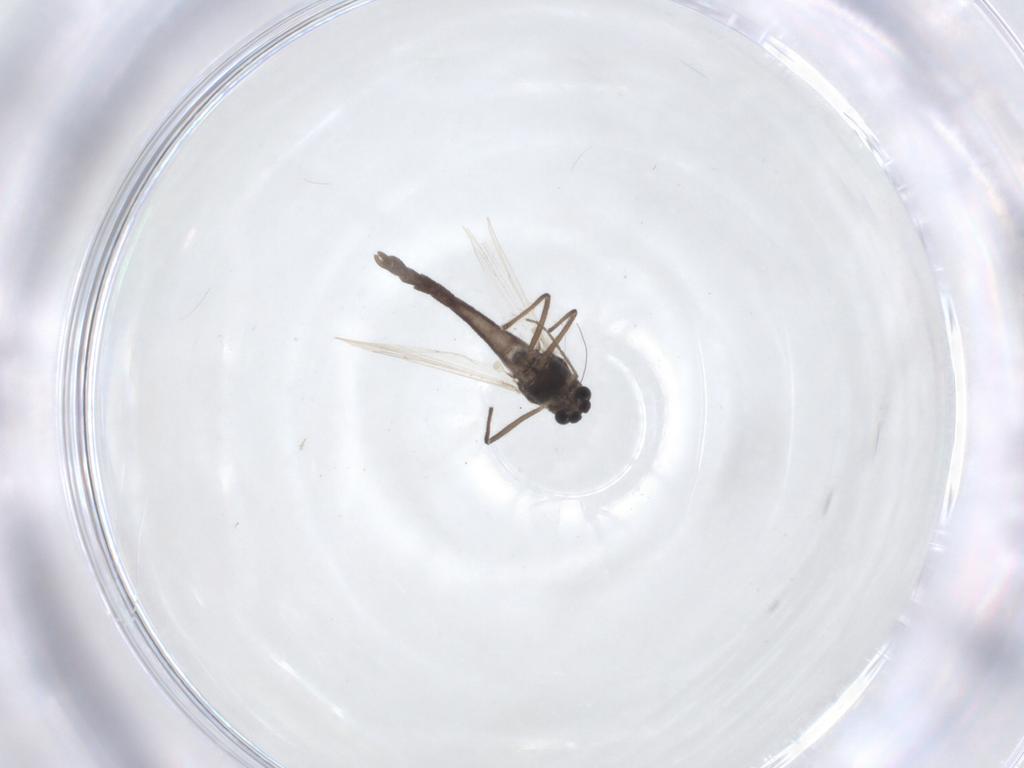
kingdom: Animalia
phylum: Arthropoda
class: Insecta
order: Diptera
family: Chironomidae
